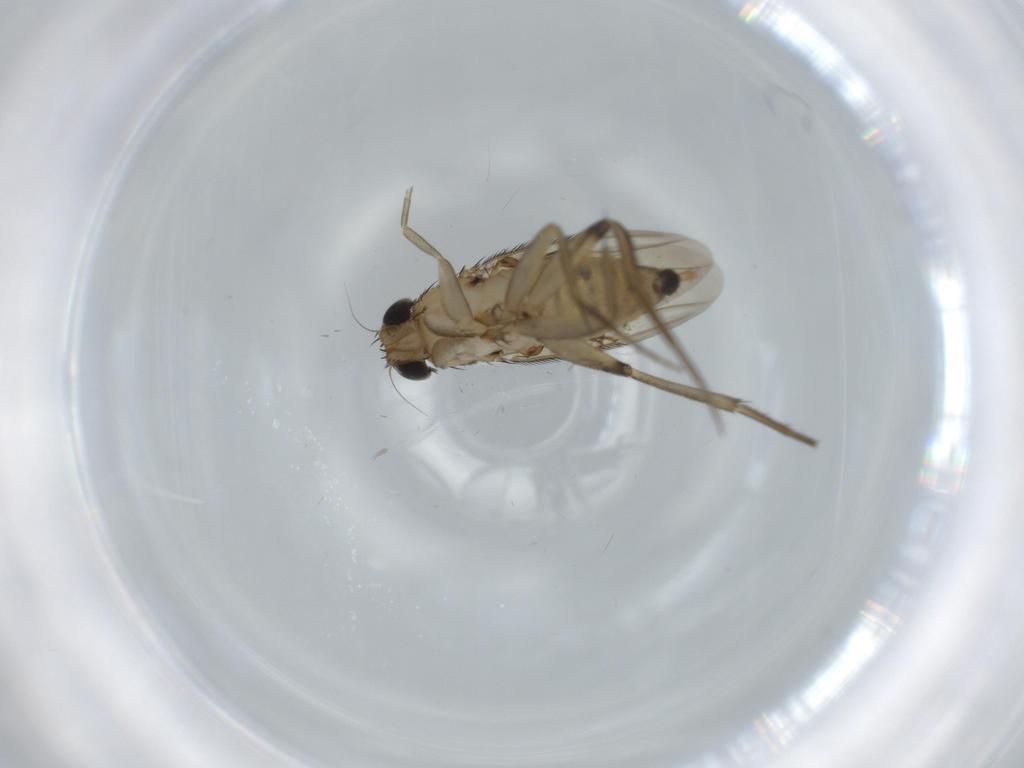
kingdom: Animalia
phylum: Arthropoda
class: Insecta
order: Diptera
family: Phoridae
